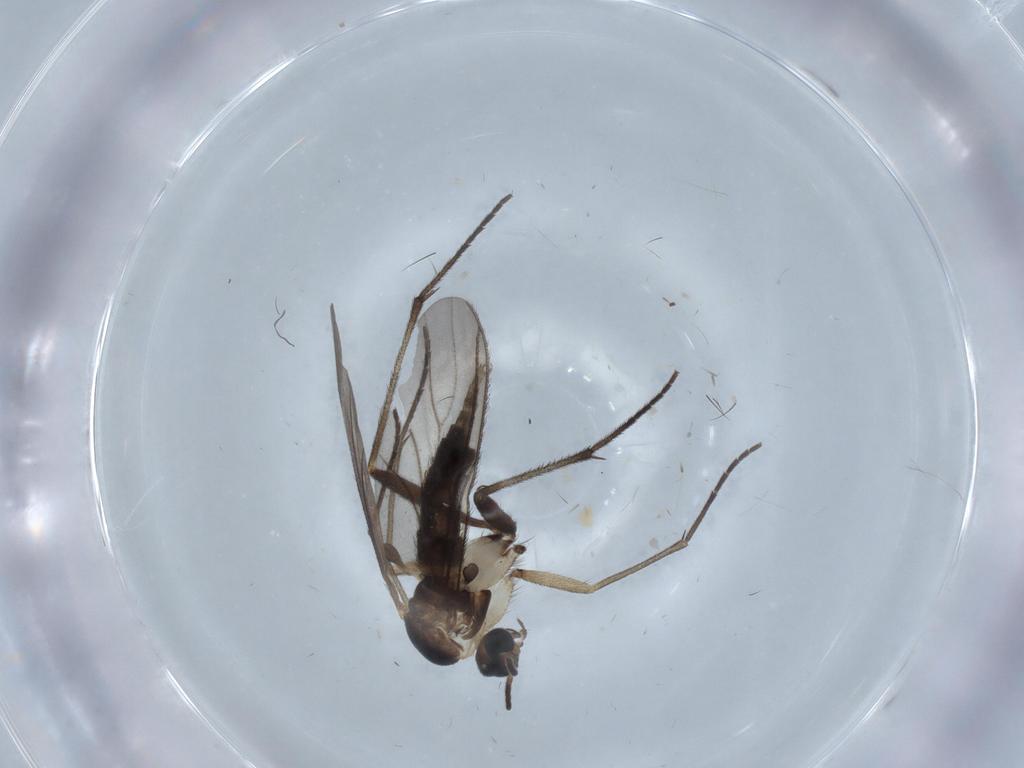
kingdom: Animalia
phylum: Arthropoda
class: Insecta
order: Diptera
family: Sciaridae
